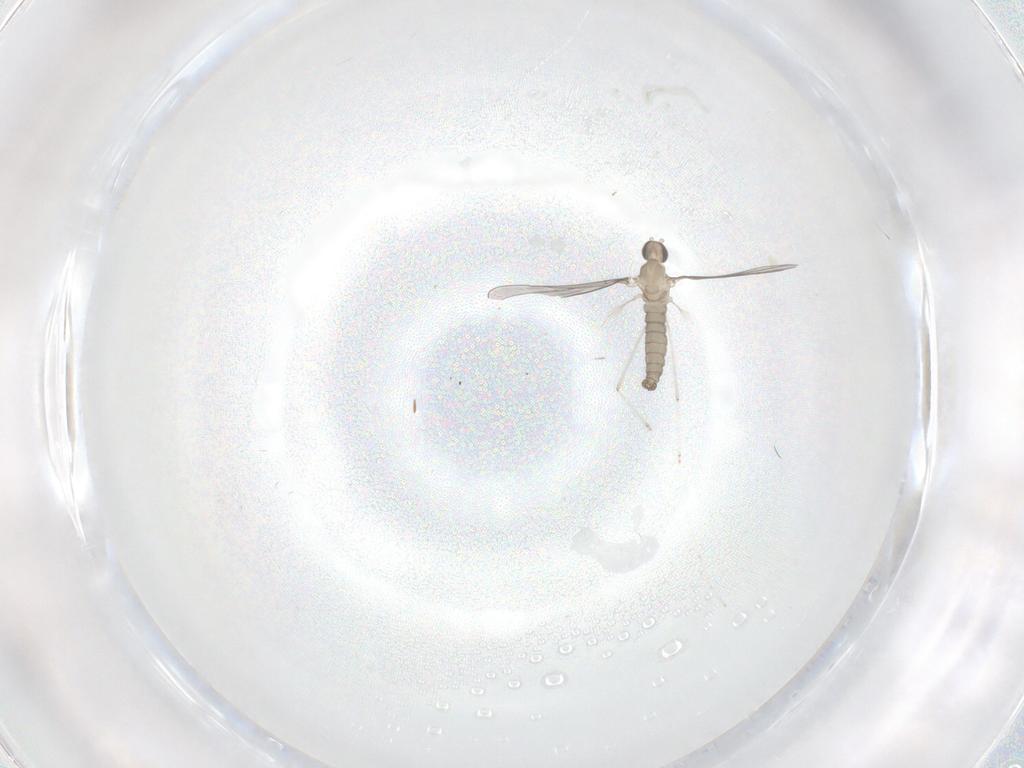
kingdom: Animalia
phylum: Arthropoda
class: Insecta
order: Diptera
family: Cecidomyiidae
